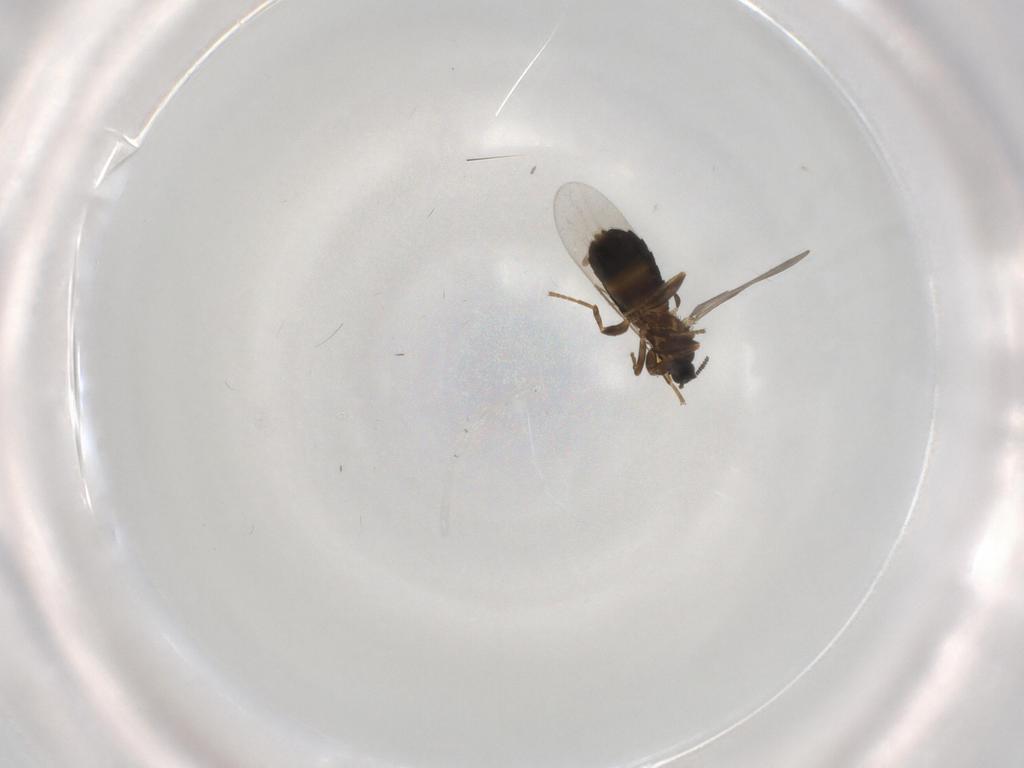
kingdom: Animalia
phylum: Arthropoda
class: Insecta
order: Diptera
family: Scatopsidae
